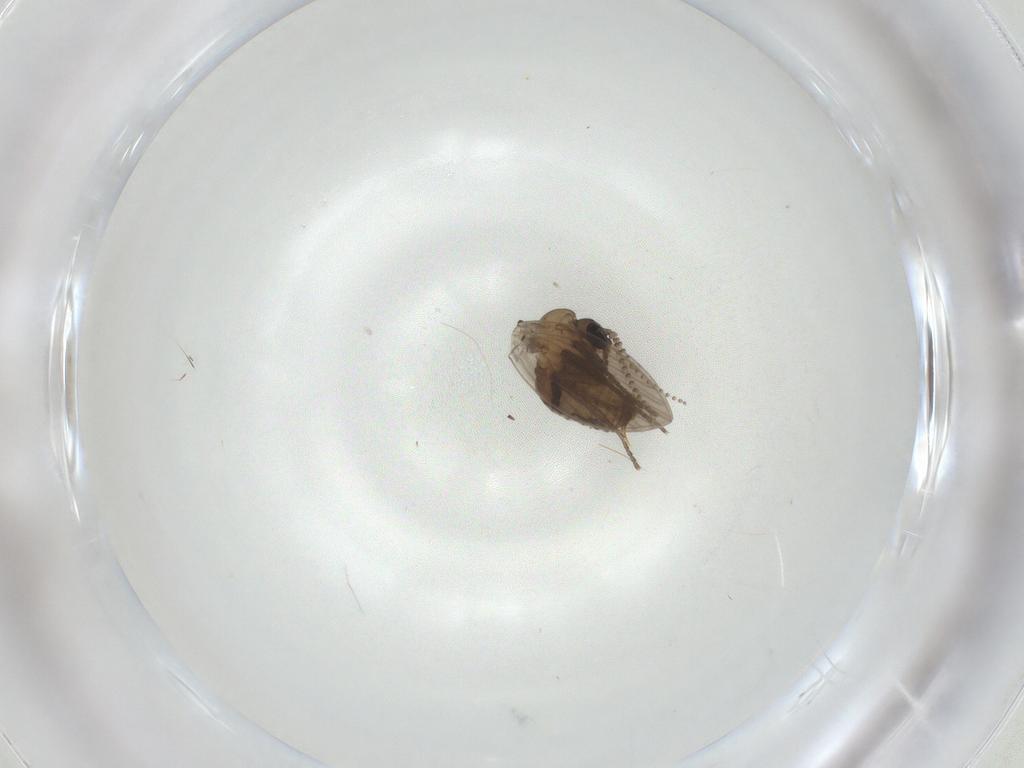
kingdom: Animalia
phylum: Arthropoda
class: Insecta
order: Diptera
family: Psychodidae
